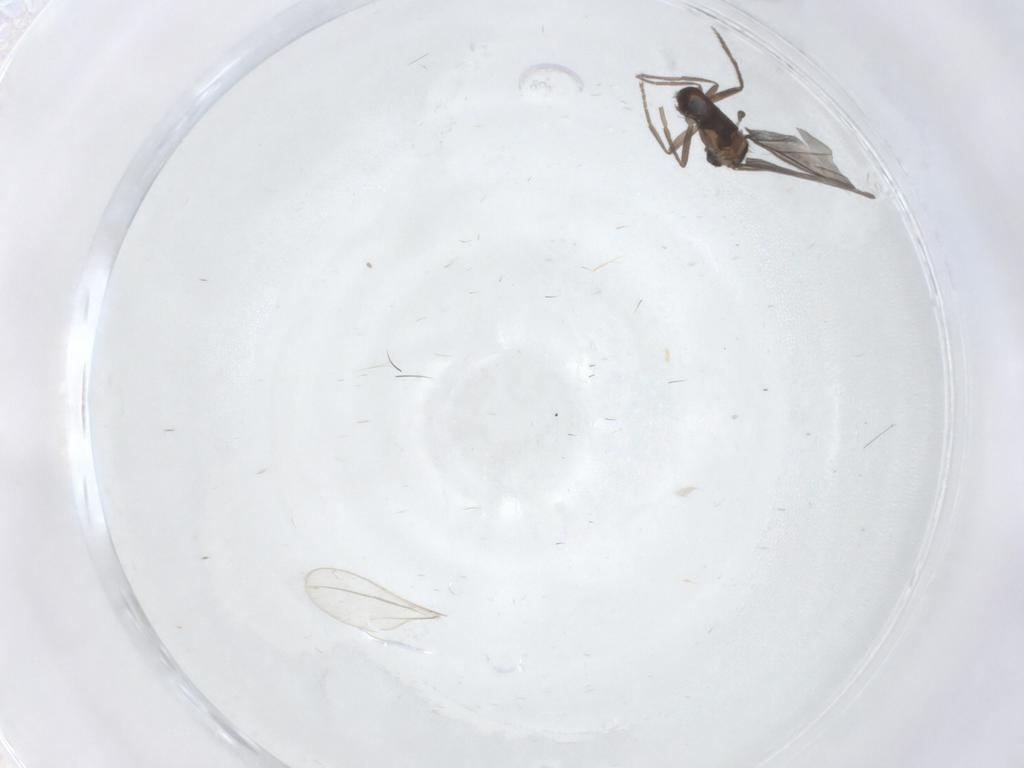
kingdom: Animalia
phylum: Arthropoda
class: Insecta
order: Diptera
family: Phoridae
